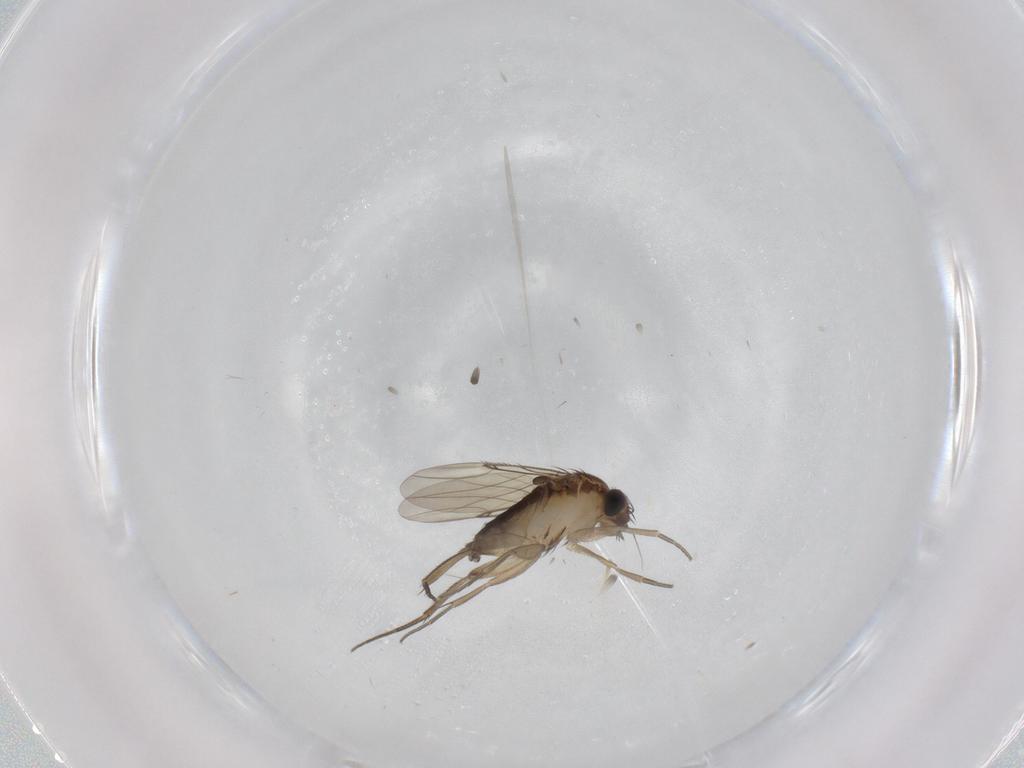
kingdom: Animalia
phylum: Arthropoda
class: Insecta
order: Diptera
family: Phoridae
